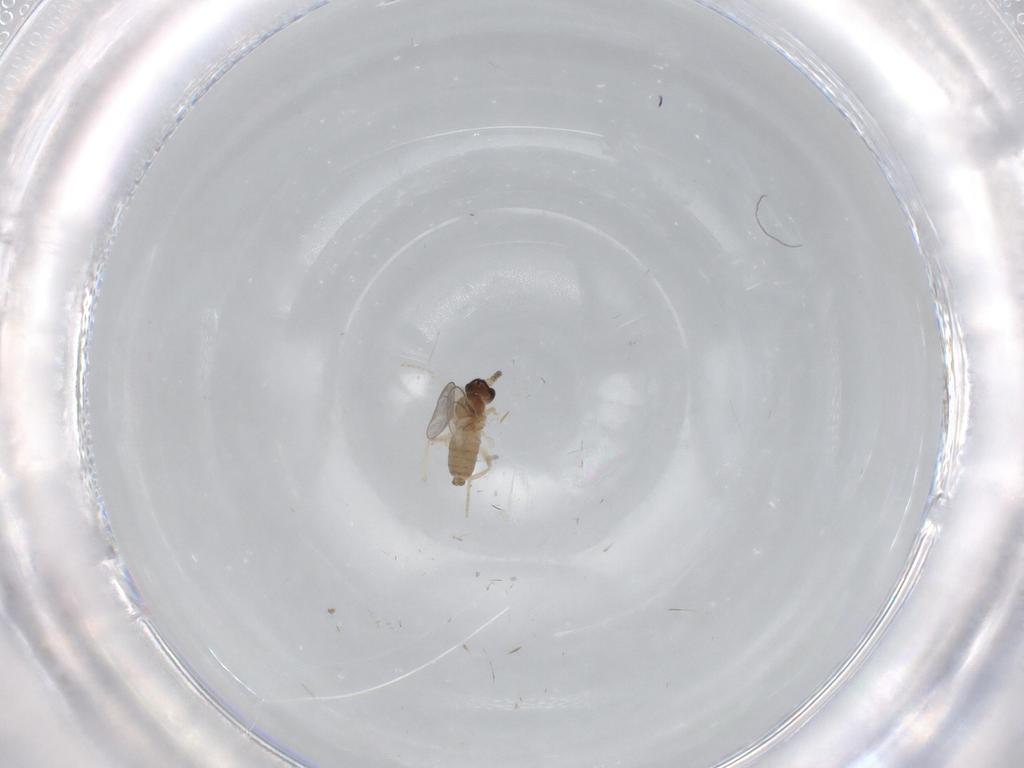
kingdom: Animalia
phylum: Arthropoda
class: Insecta
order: Diptera
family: Cecidomyiidae
